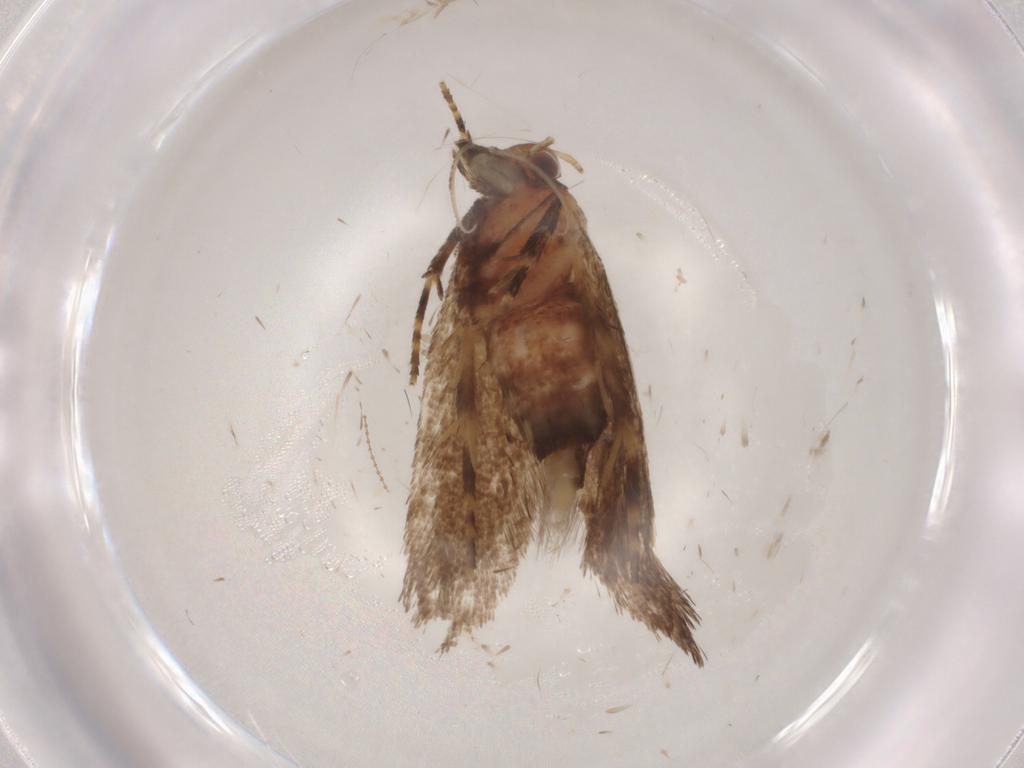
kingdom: Animalia
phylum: Arthropoda
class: Insecta
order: Lepidoptera
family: Oecophoridae
